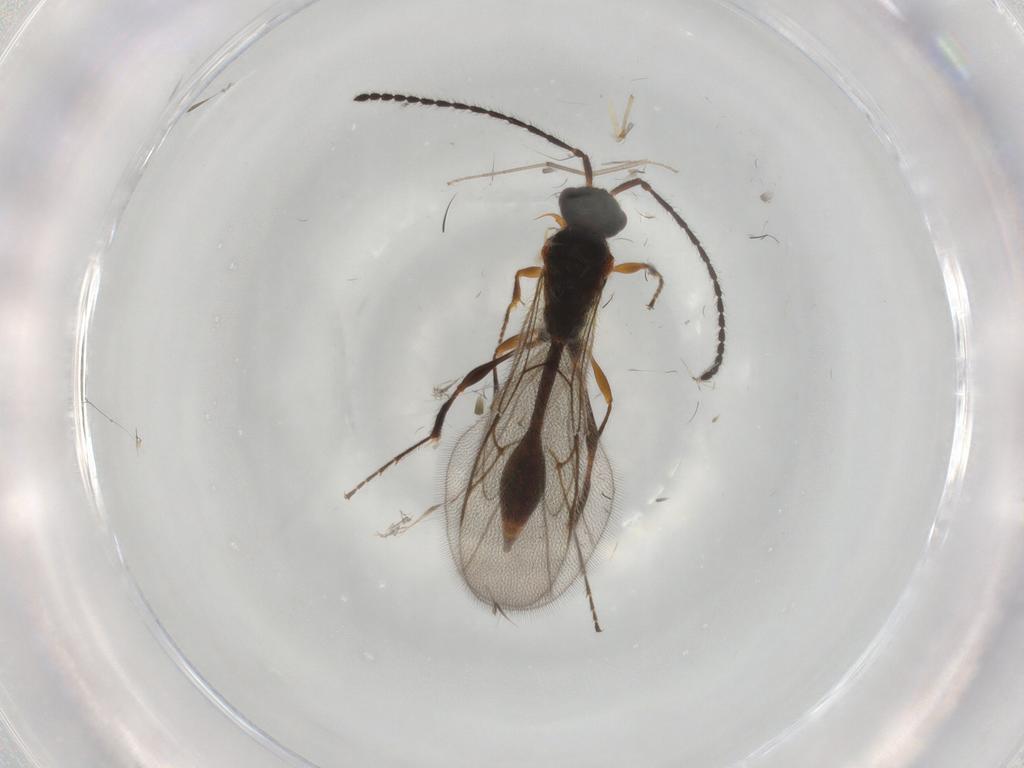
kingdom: Animalia
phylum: Arthropoda
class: Insecta
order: Hymenoptera
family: Diapriidae
